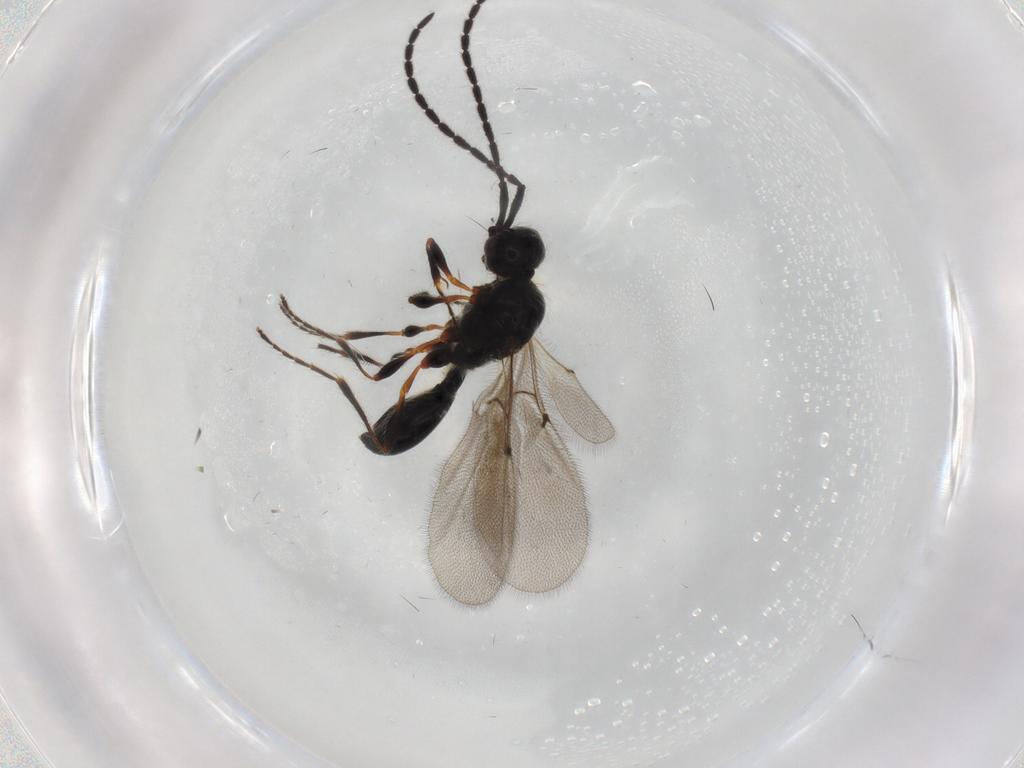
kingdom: Animalia
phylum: Arthropoda
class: Insecta
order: Hymenoptera
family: Diapriidae
